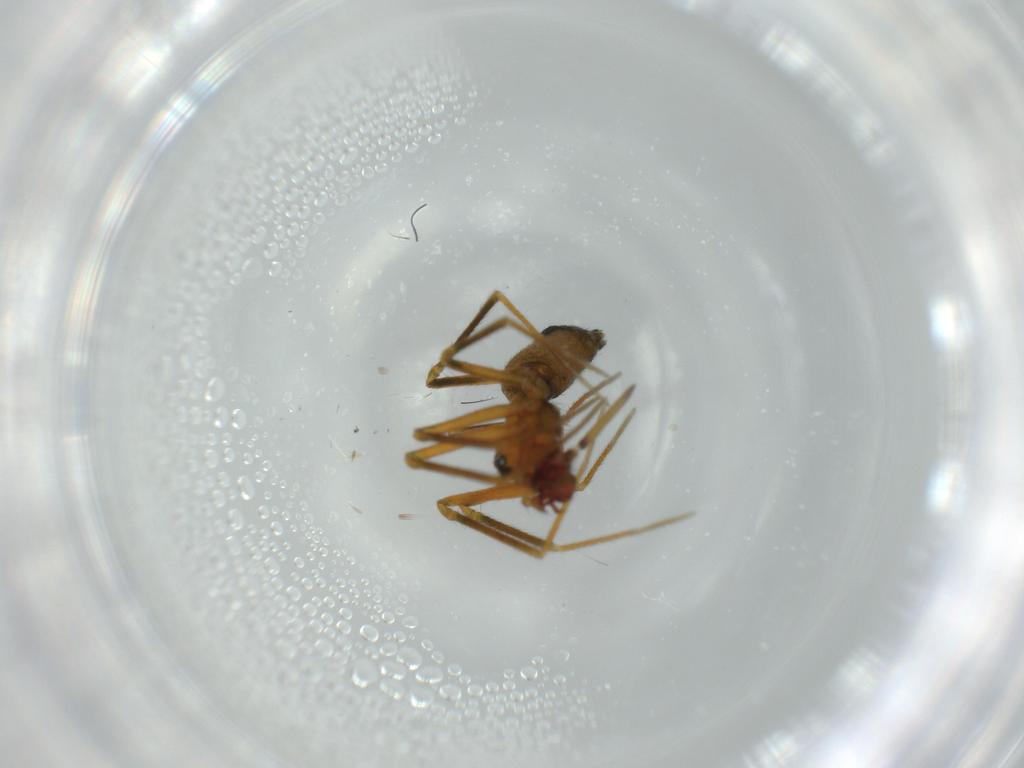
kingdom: Animalia
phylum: Arthropoda
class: Arachnida
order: Araneae
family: Linyphiidae
